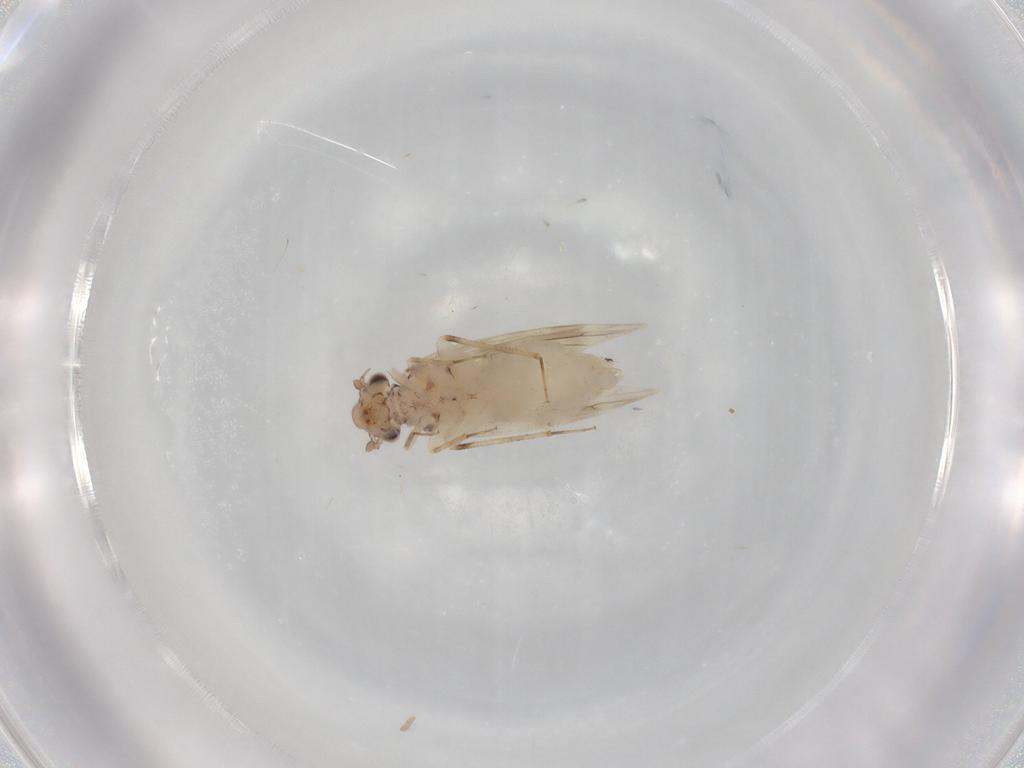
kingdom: Animalia
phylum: Arthropoda
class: Insecta
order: Psocodea
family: Lepidopsocidae
